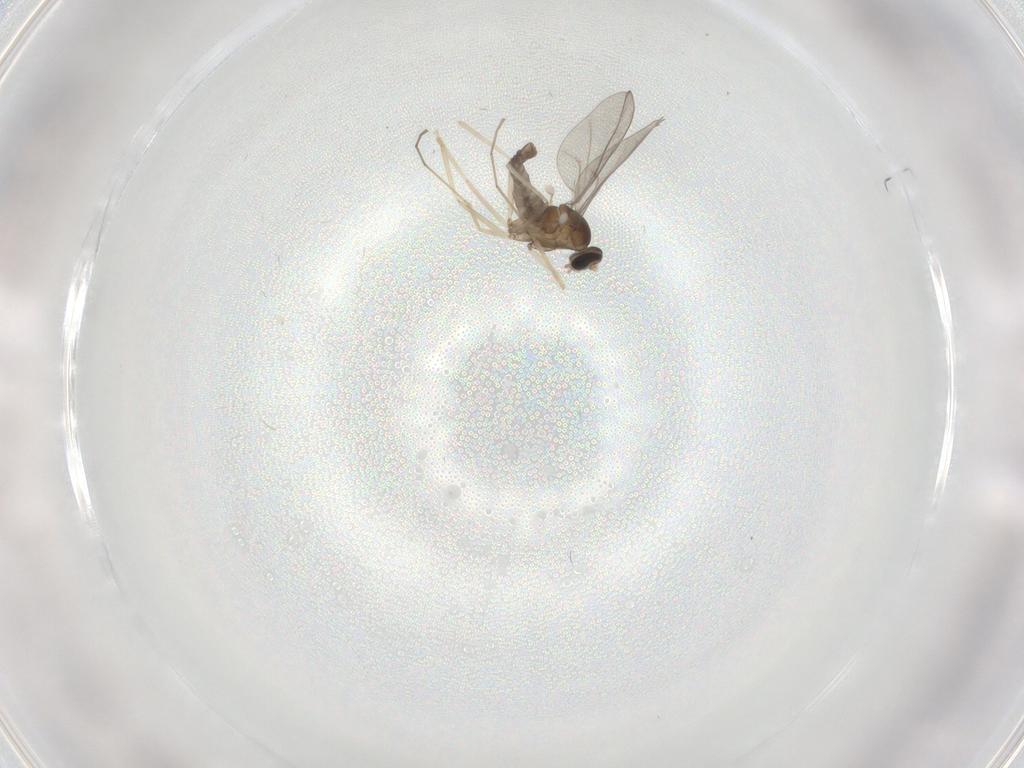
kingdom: Animalia
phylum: Arthropoda
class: Insecta
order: Diptera
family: Cecidomyiidae
